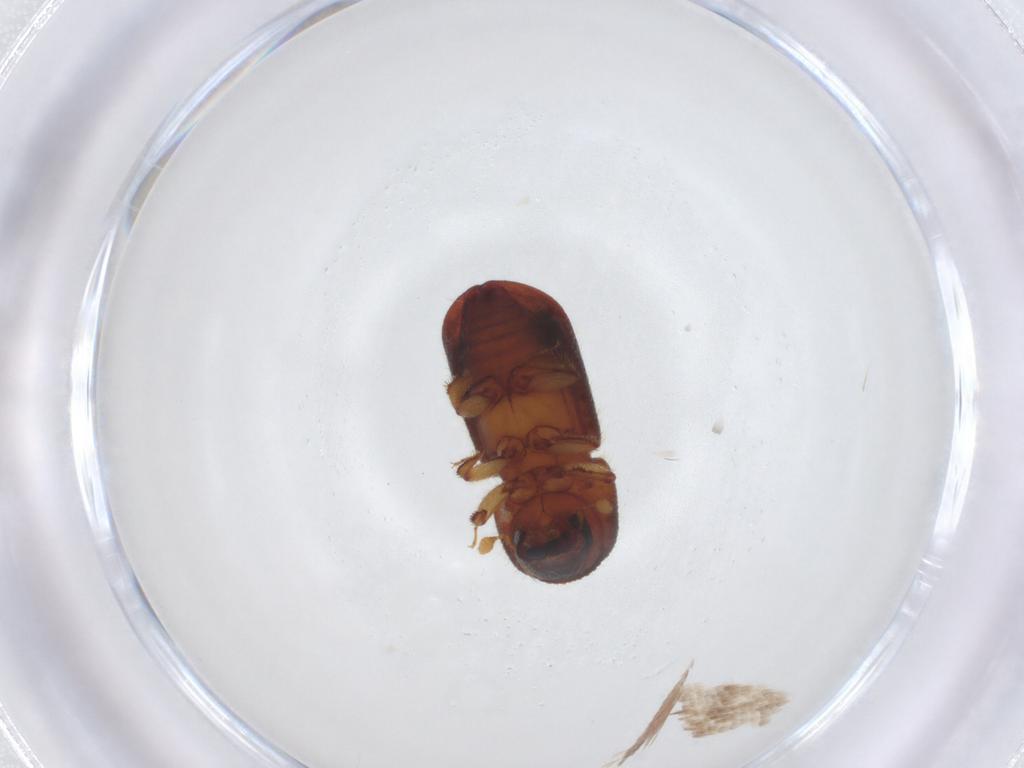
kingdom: Animalia
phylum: Arthropoda
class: Insecta
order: Coleoptera
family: Curculionidae
